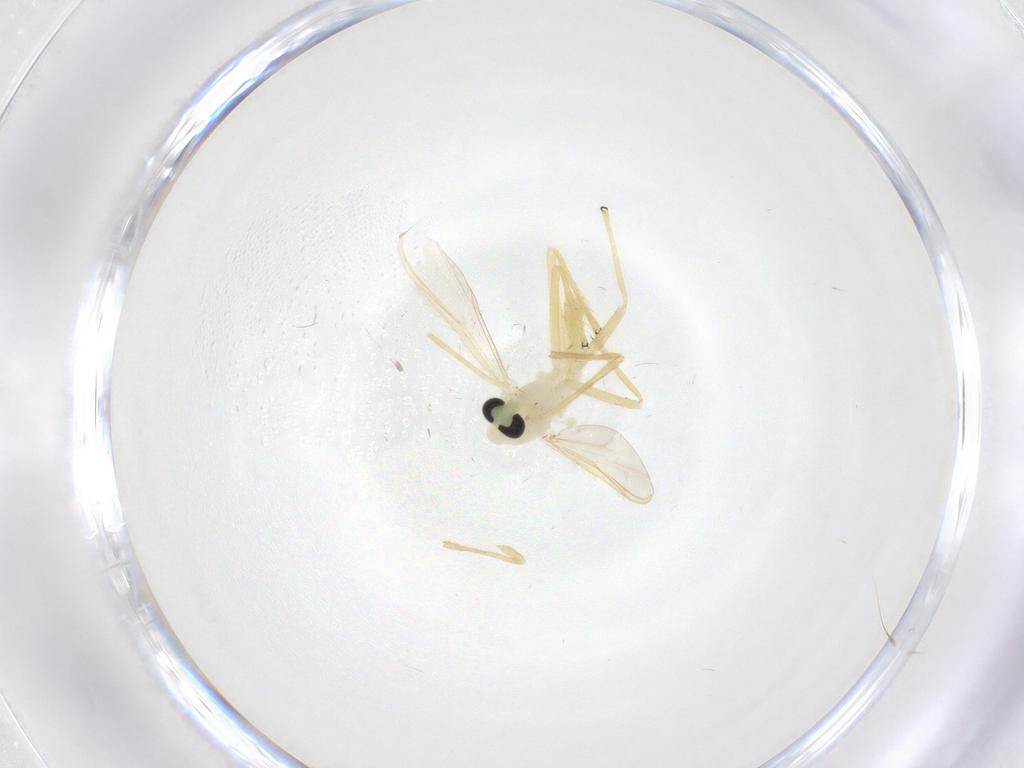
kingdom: Animalia
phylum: Arthropoda
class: Insecta
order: Diptera
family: Chironomidae
